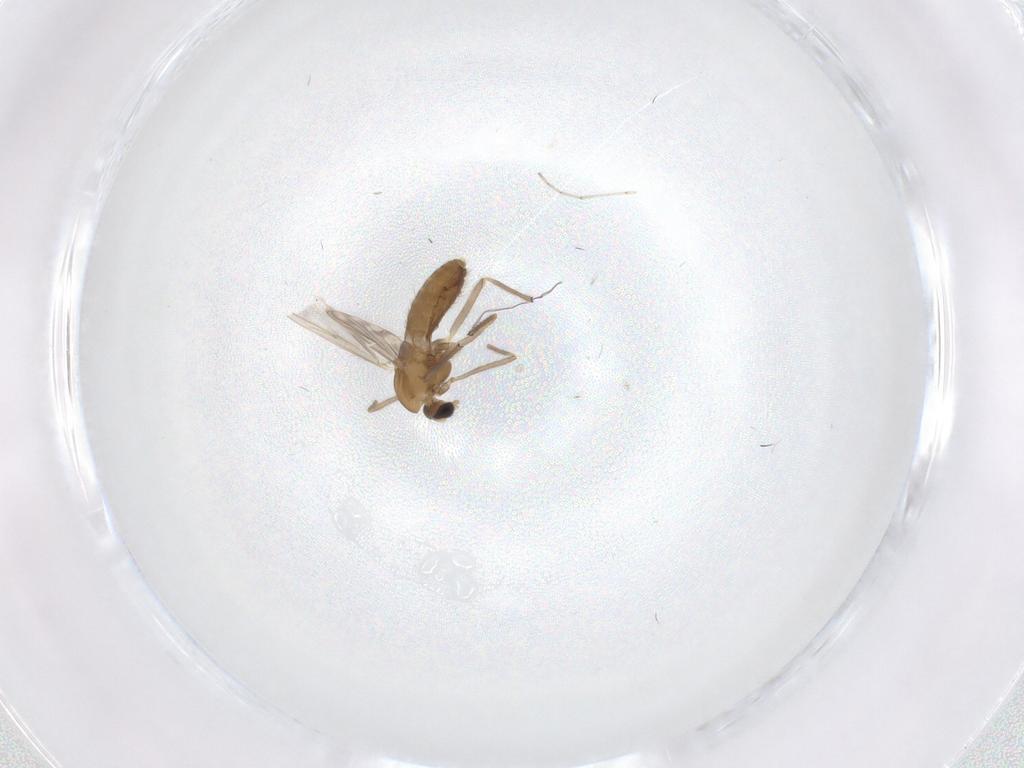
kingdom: Animalia
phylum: Arthropoda
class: Insecta
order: Diptera
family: Chironomidae
